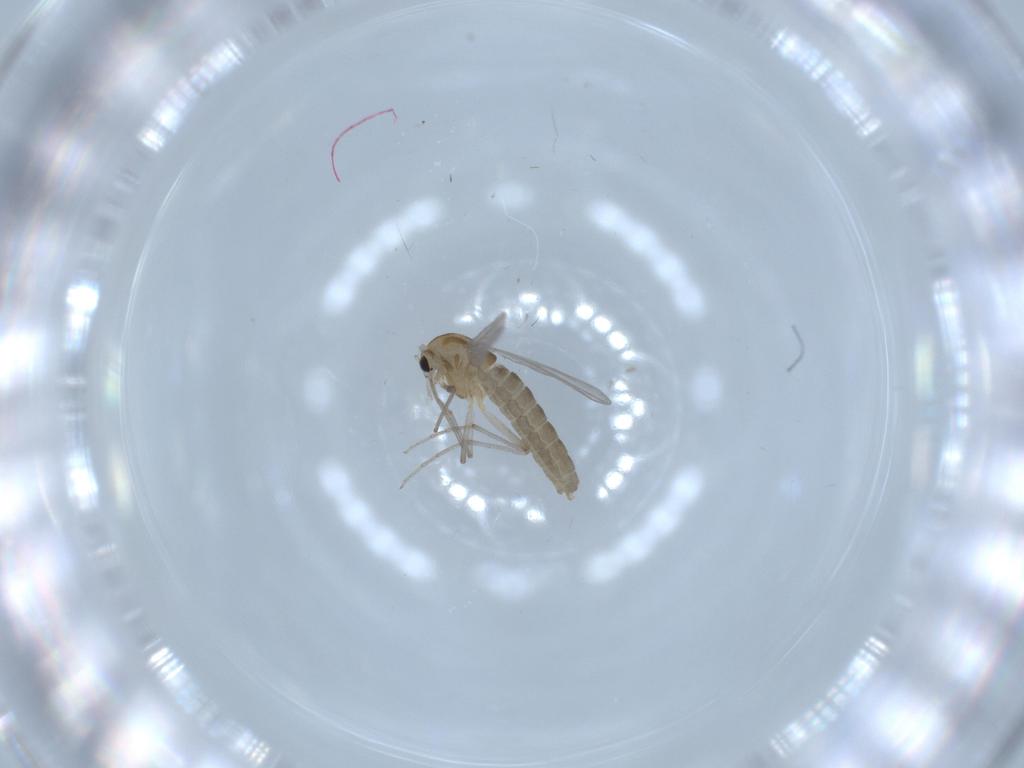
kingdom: Animalia
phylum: Arthropoda
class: Insecta
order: Diptera
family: Chironomidae
